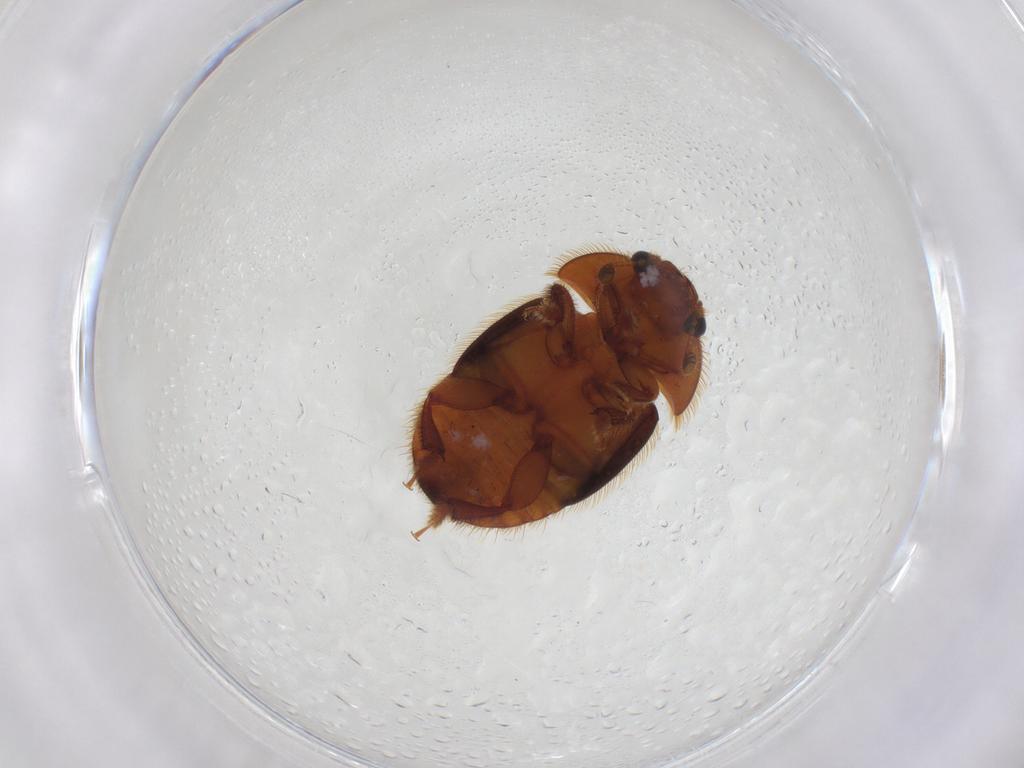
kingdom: Animalia
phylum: Arthropoda
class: Insecta
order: Coleoptera
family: Nitidulidae
